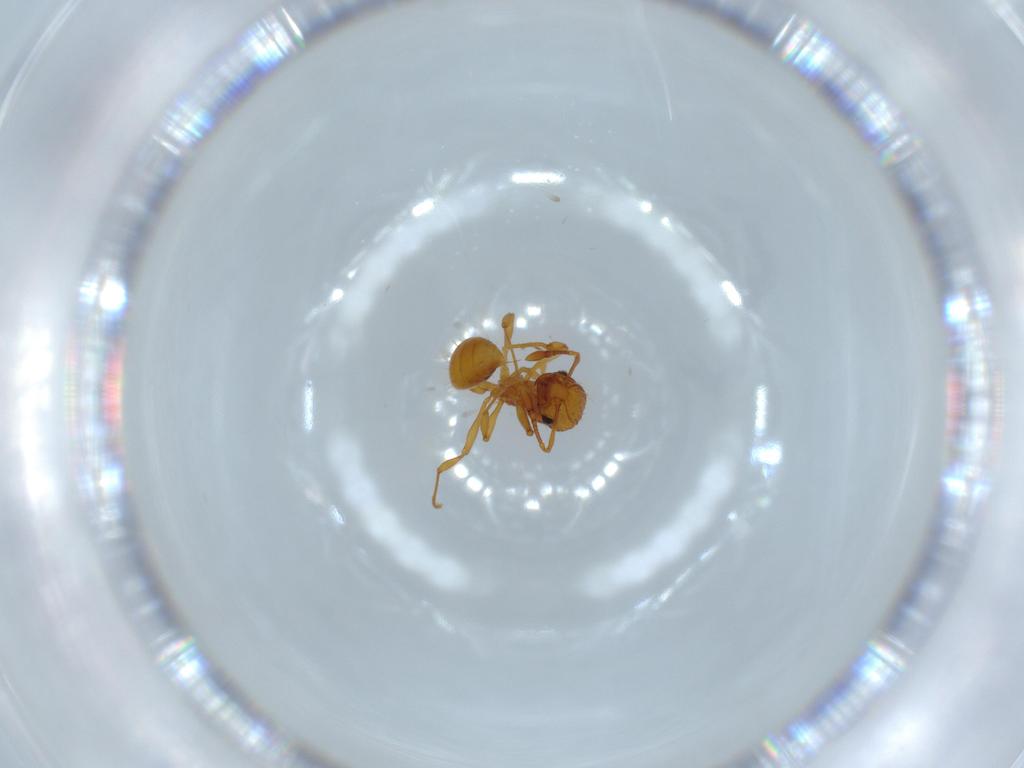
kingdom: Animalia
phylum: Arthropoda
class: Insecta
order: Hymenoptera
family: Formicidae
